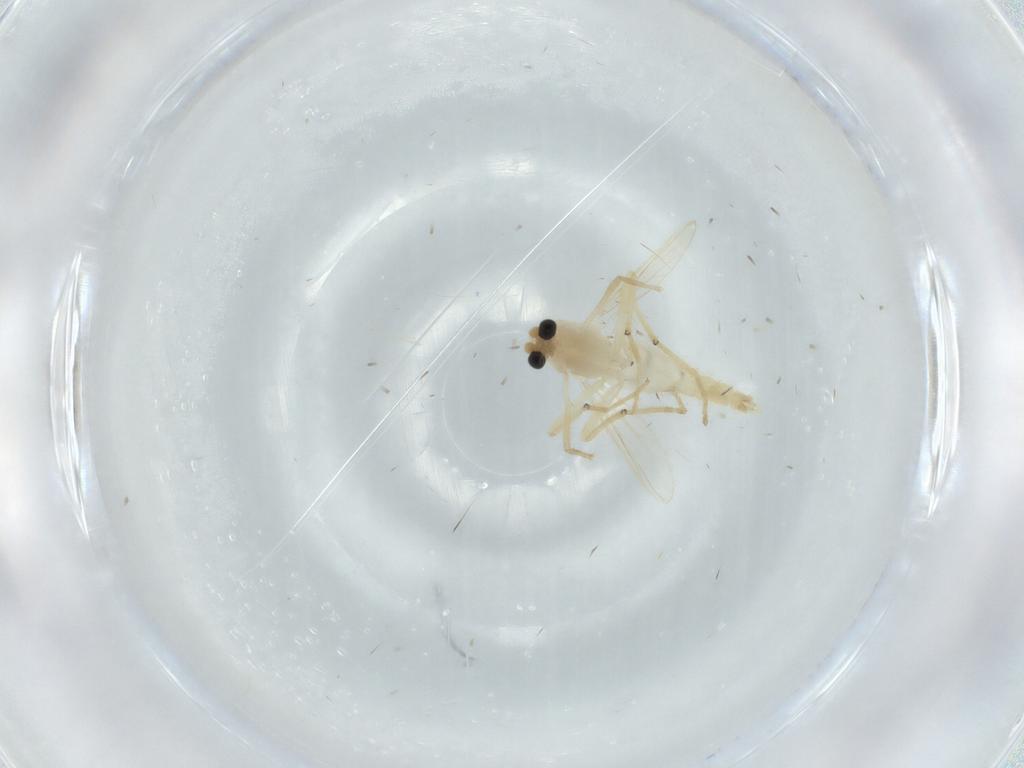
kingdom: Animalia
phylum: Arthropoda
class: Insecta
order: Diptera
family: Chironomidae
